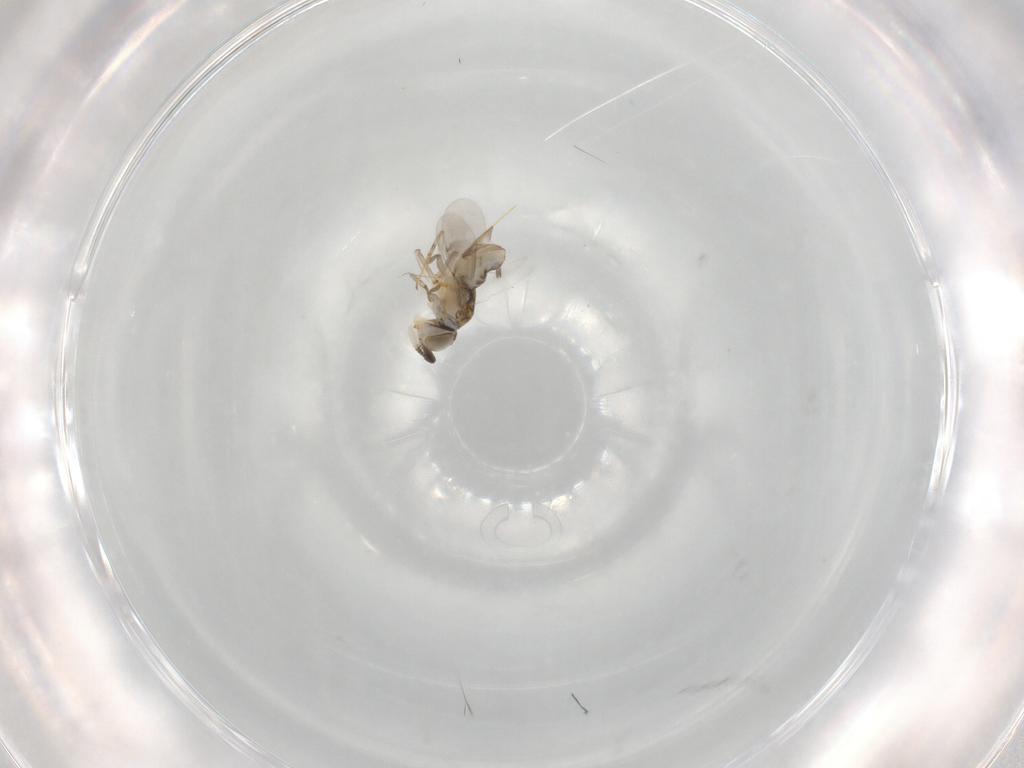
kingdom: Animalia
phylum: Arthropoda
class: Insecta
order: Hymenoptera
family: Encyrtidae
